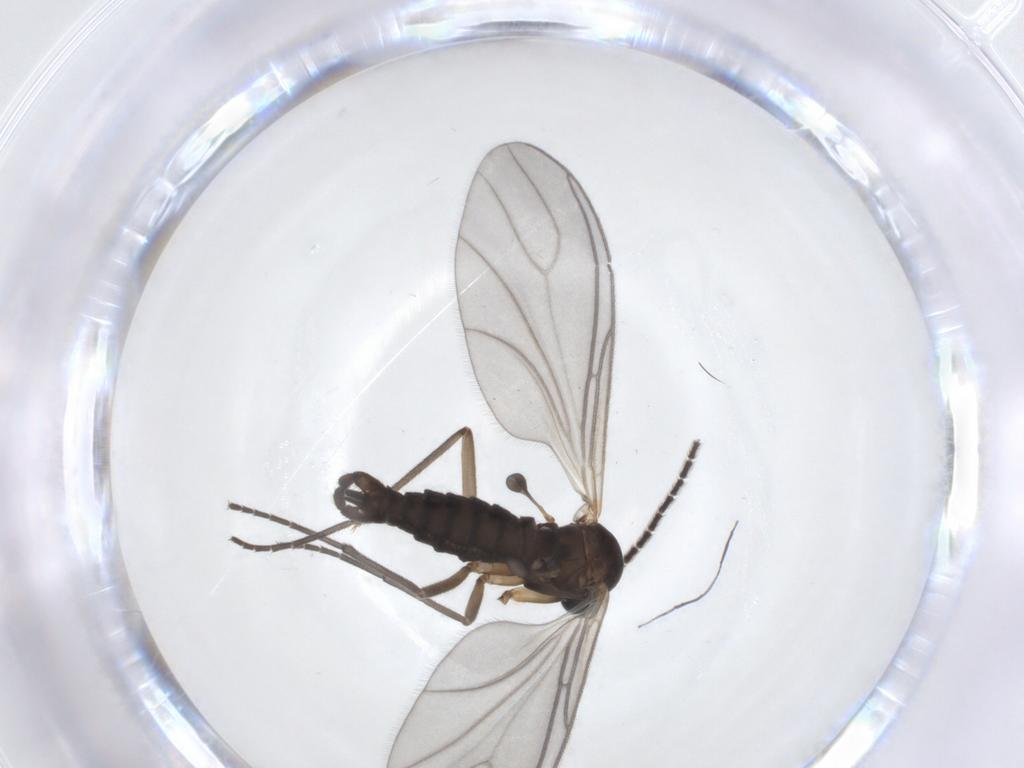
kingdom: Animalia
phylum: Arthropoda
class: Insecta
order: Diptera
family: Sciaridae
